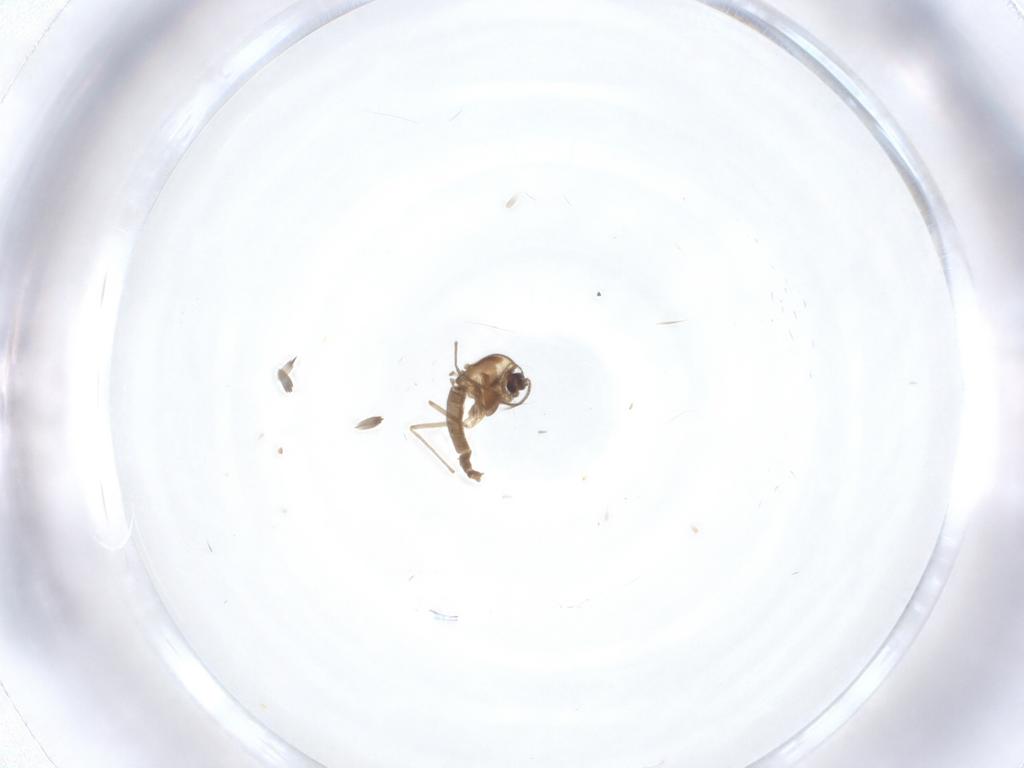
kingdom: Animalia
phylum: Arthropoda
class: Insecta
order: Diptera
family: Chironomidae
